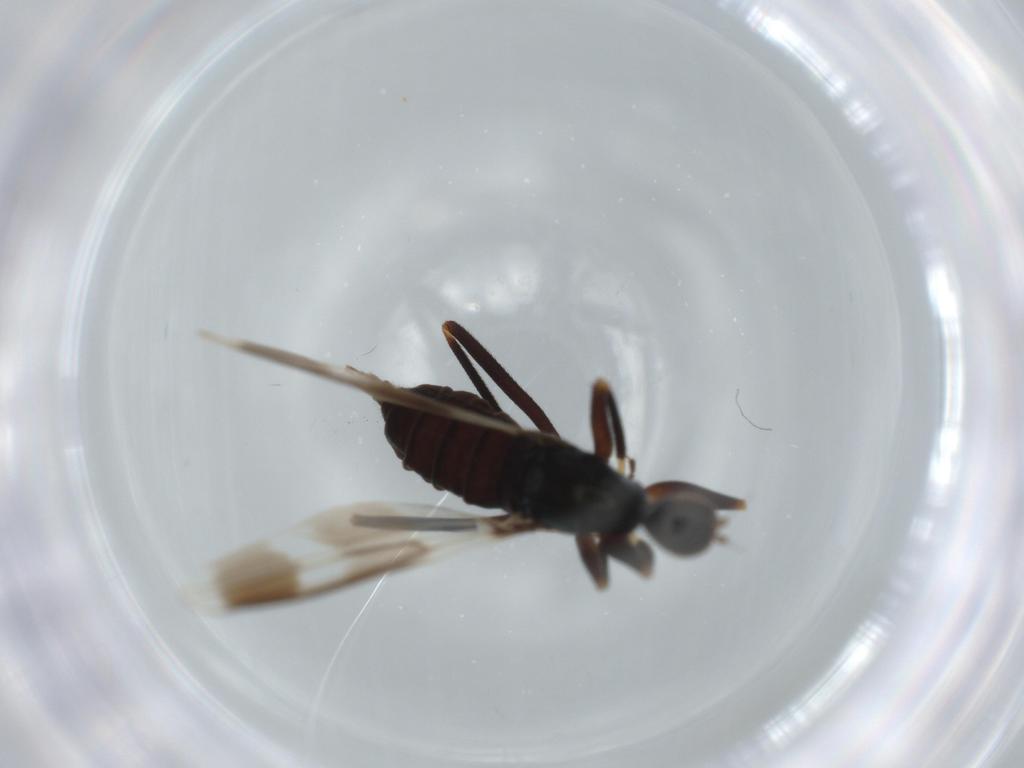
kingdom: Animalia
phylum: Arthropoda
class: Insecta
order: Diptera
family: Hybotidae
